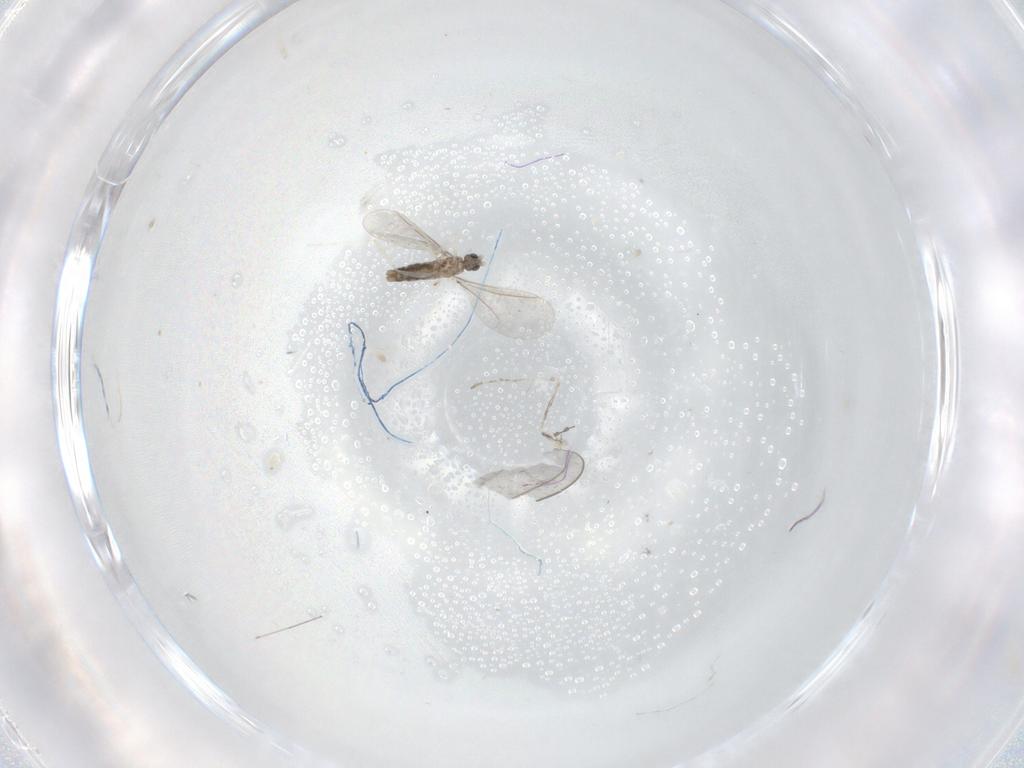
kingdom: Animalia
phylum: Arthropoda
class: Insecta
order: Diptera
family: Cecidomyiidae
